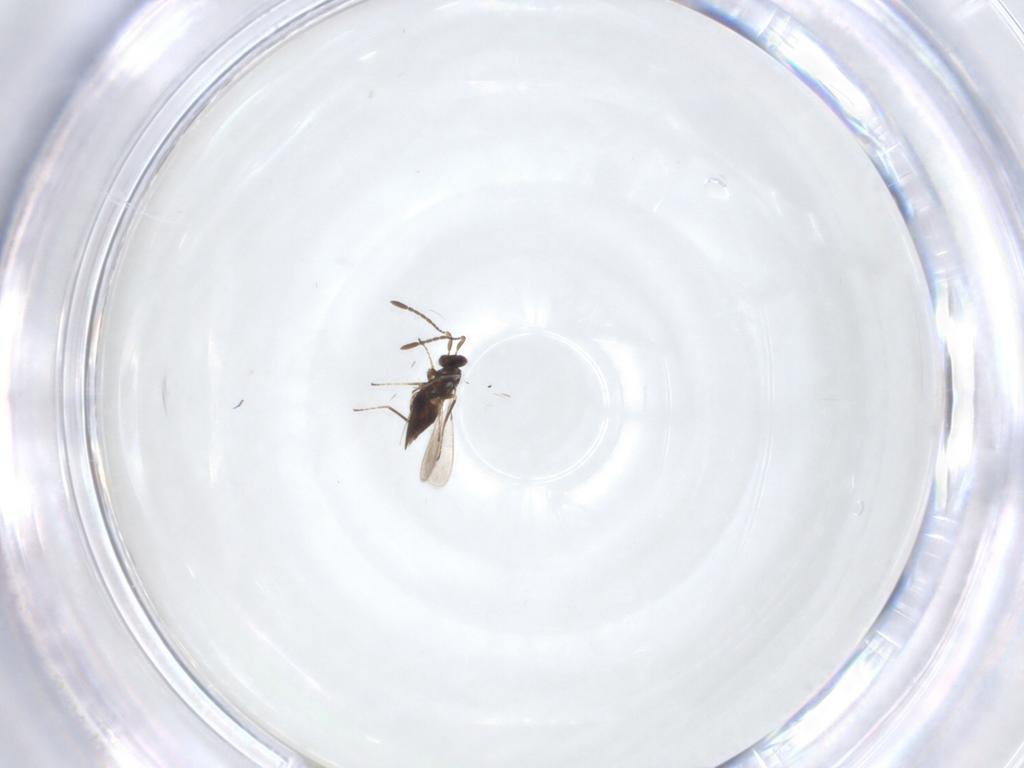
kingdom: Animalia
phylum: Arthropoda
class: Insecta
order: Hymenoptera
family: Mymaridae
